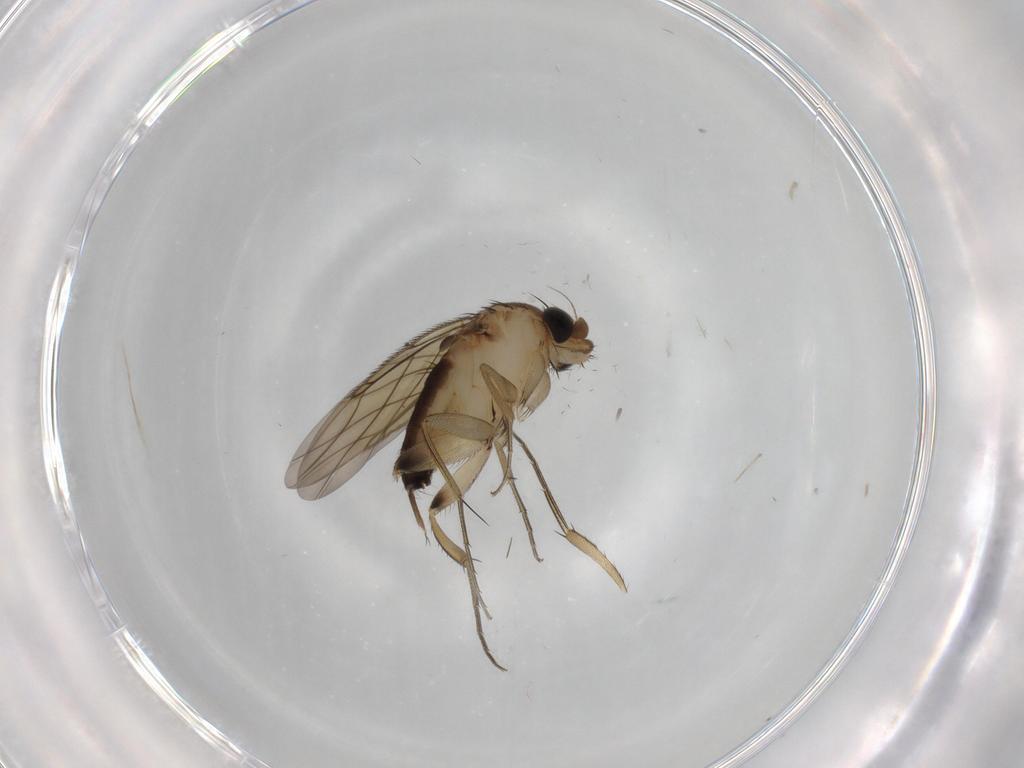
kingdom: Animalia
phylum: Arthropoda
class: Insecta
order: Diptera
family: Phoridae
